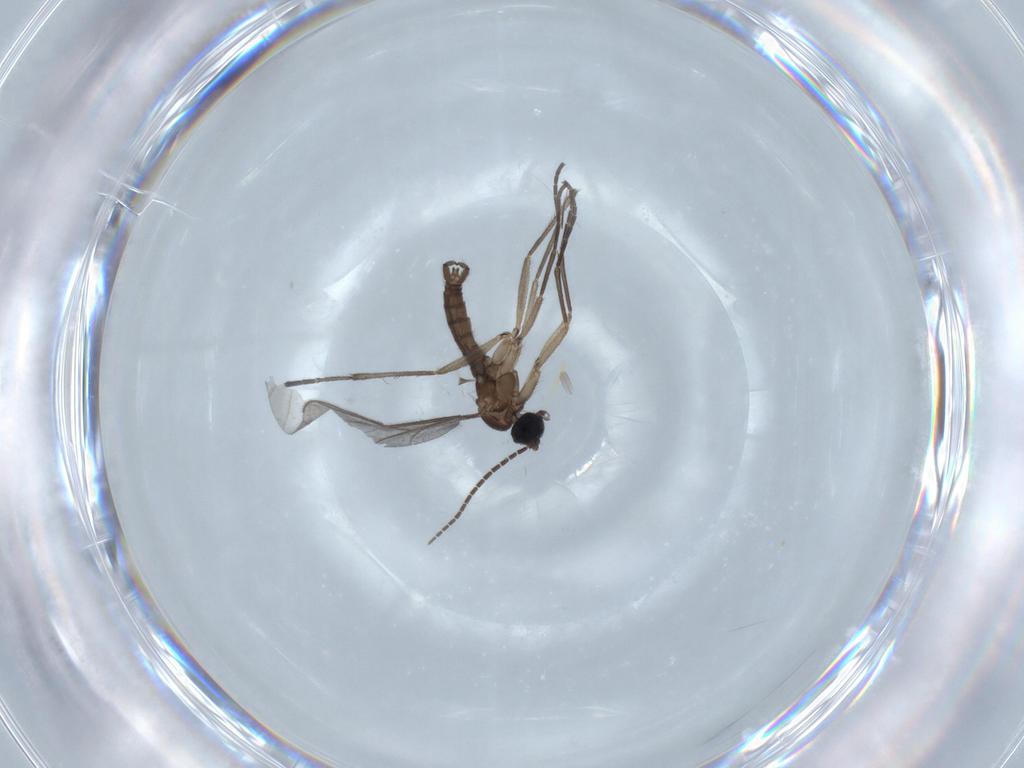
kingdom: Animalia
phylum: Arthropoda
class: Insecta
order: Diptera
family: Sciaridae
